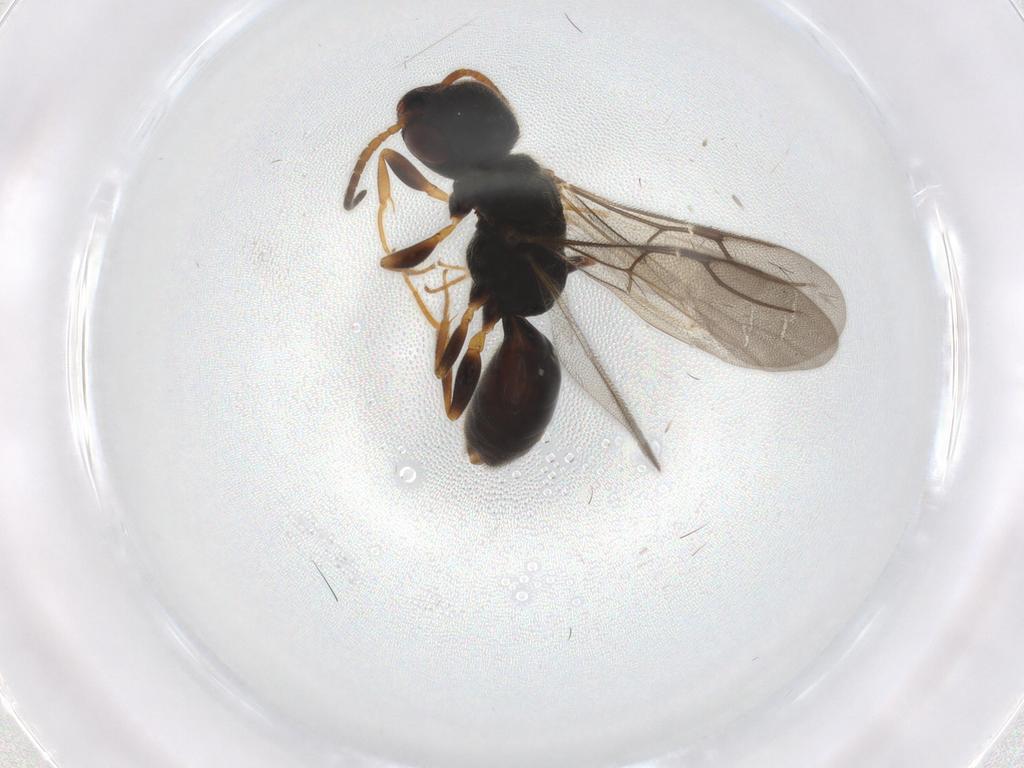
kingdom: Animalia
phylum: Arthropoda
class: Insecta
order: Hymenoptera
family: Bethylidae
